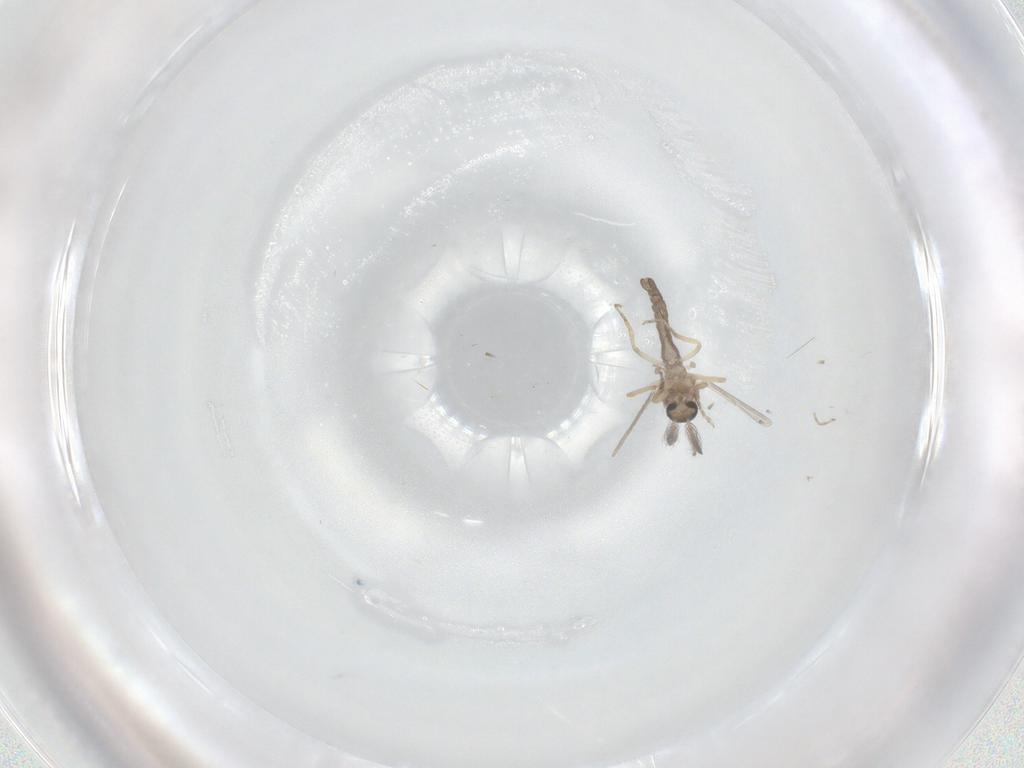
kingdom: Animalia
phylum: Arthropoda
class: Insecta
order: Diptera
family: Ceratopogonidae
